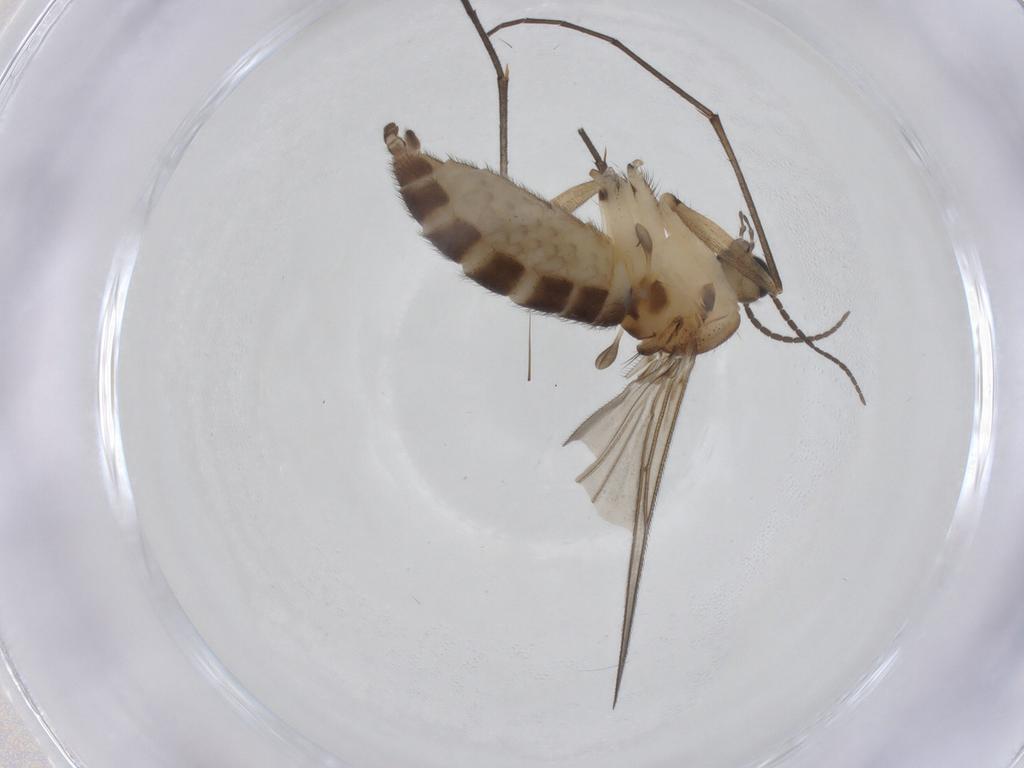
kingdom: Animalia
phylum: Arthropoda
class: Insecta
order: Diptera
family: Sciaridae
